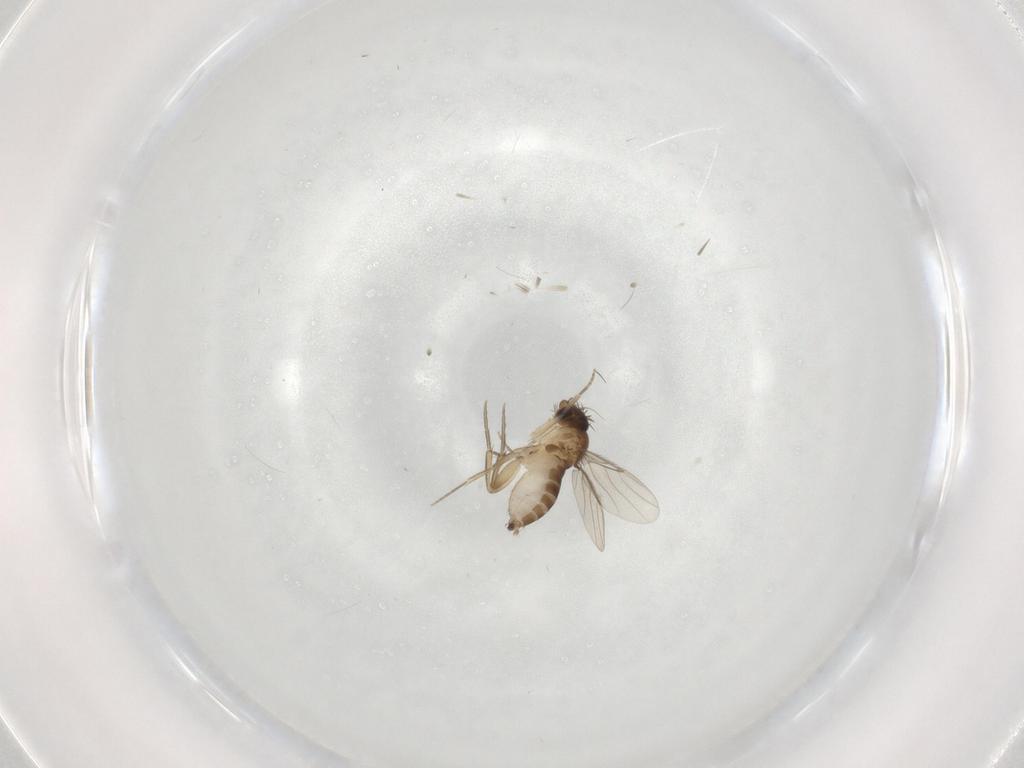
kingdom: Animalia
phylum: Arthropoda
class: Insecta
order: Diptera
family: Phoridae
